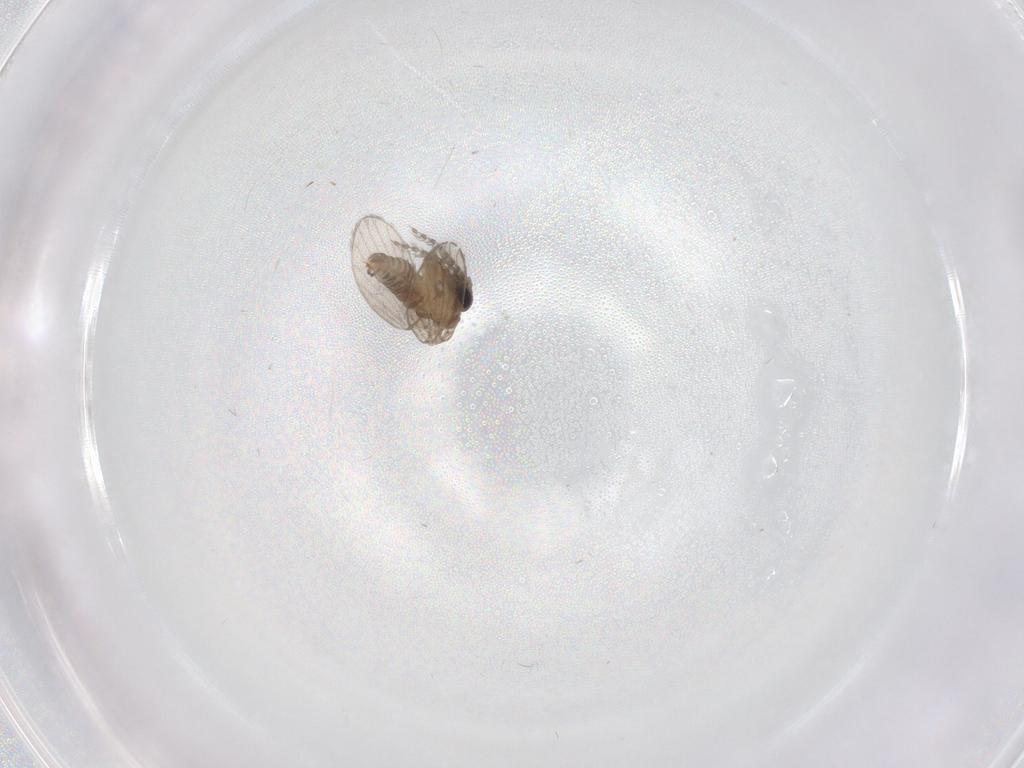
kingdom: Animalia
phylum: Arthropoda
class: Insecta
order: Diptera
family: Psychodidae
